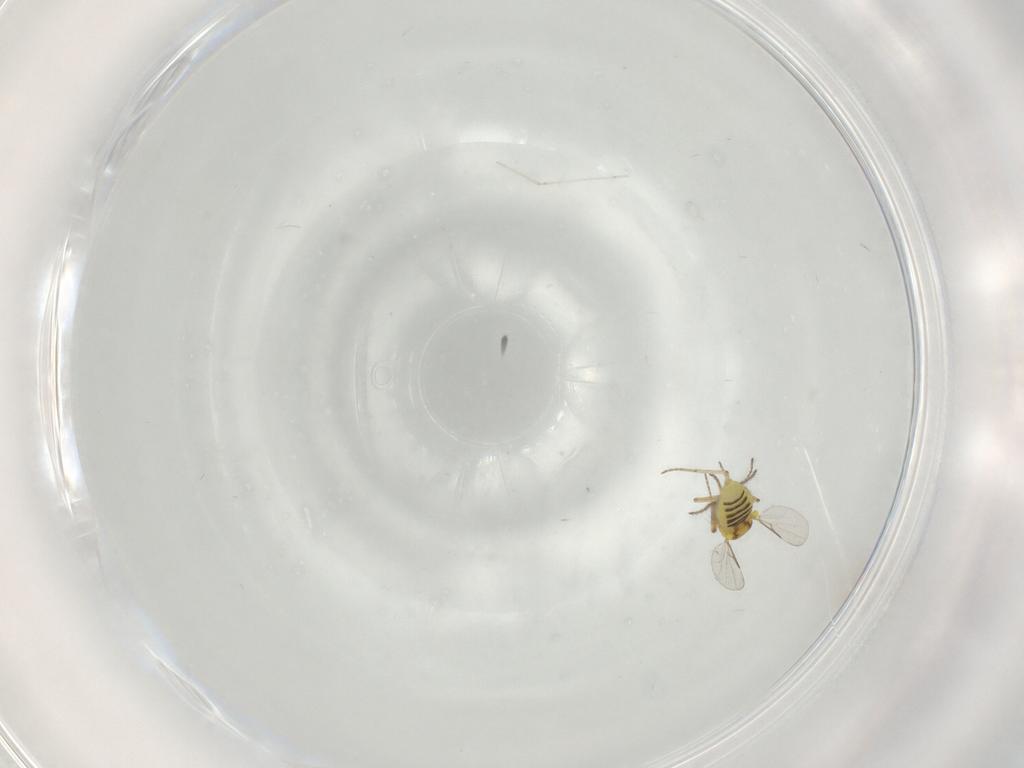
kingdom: Animalia
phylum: Arthropoda
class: Insecta
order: Diptera
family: Ceratopogonidae
